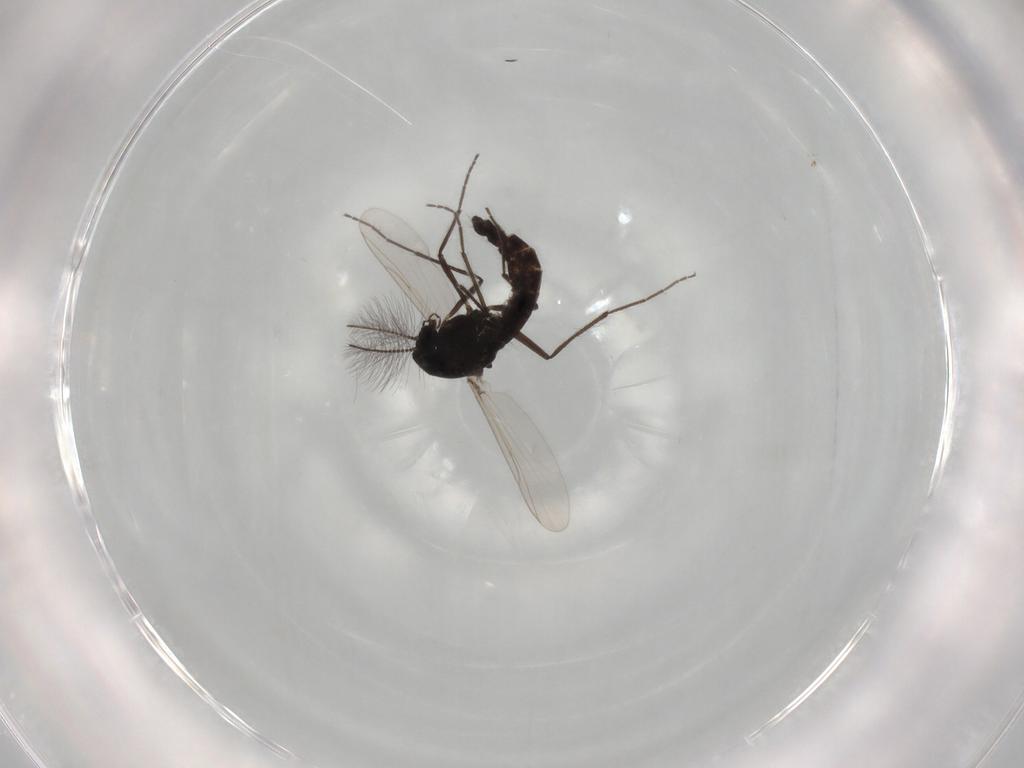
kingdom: Animalia
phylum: Arthropoda
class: Insecta
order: Diptera
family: Chironomidae
